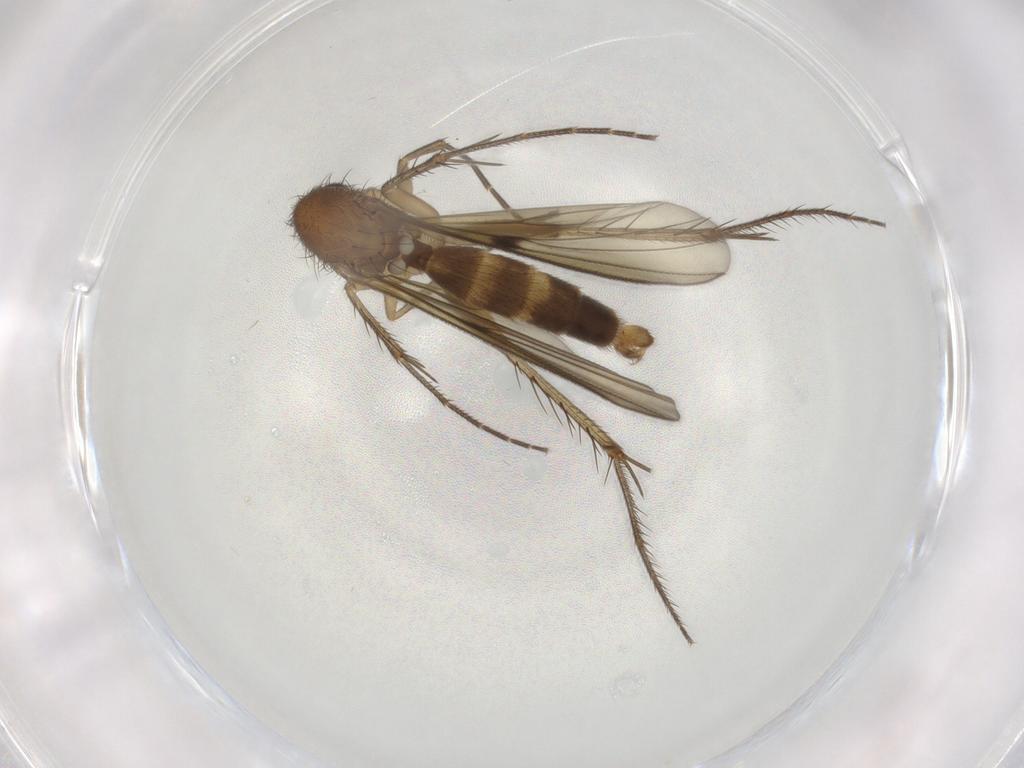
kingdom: Animalia
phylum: Arthropoda
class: Insecta
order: Diptera
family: Mycetophilidae
